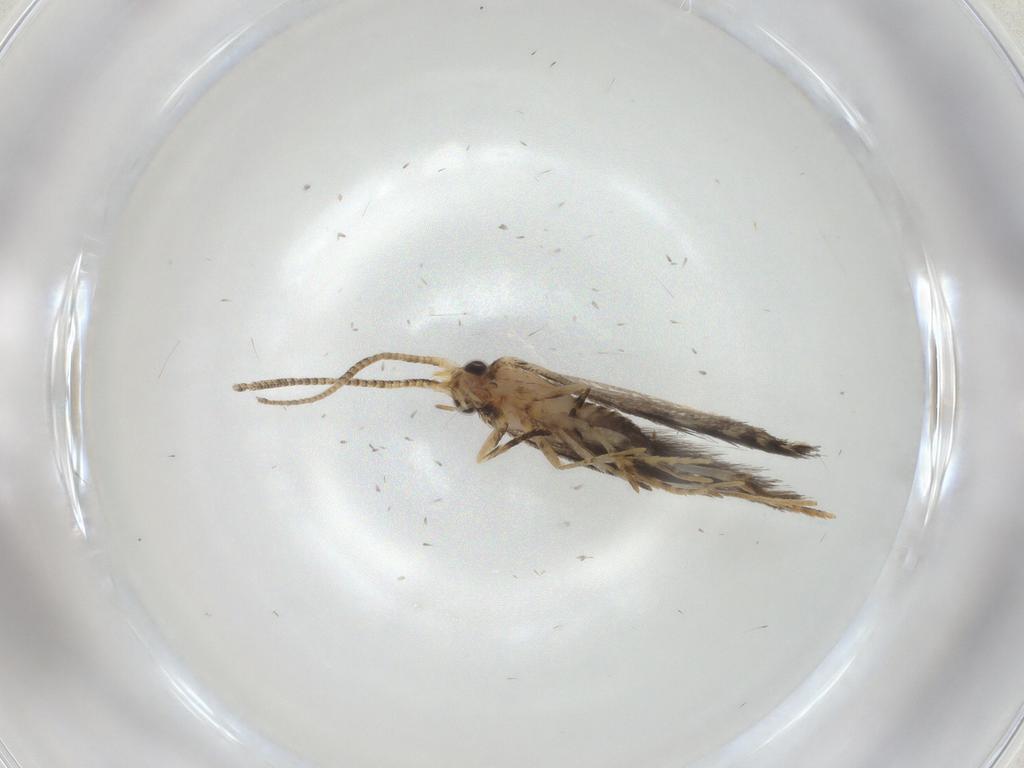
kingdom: Animalia
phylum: Arthropoda
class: Insecta
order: Lepidoptera
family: Tineidae
